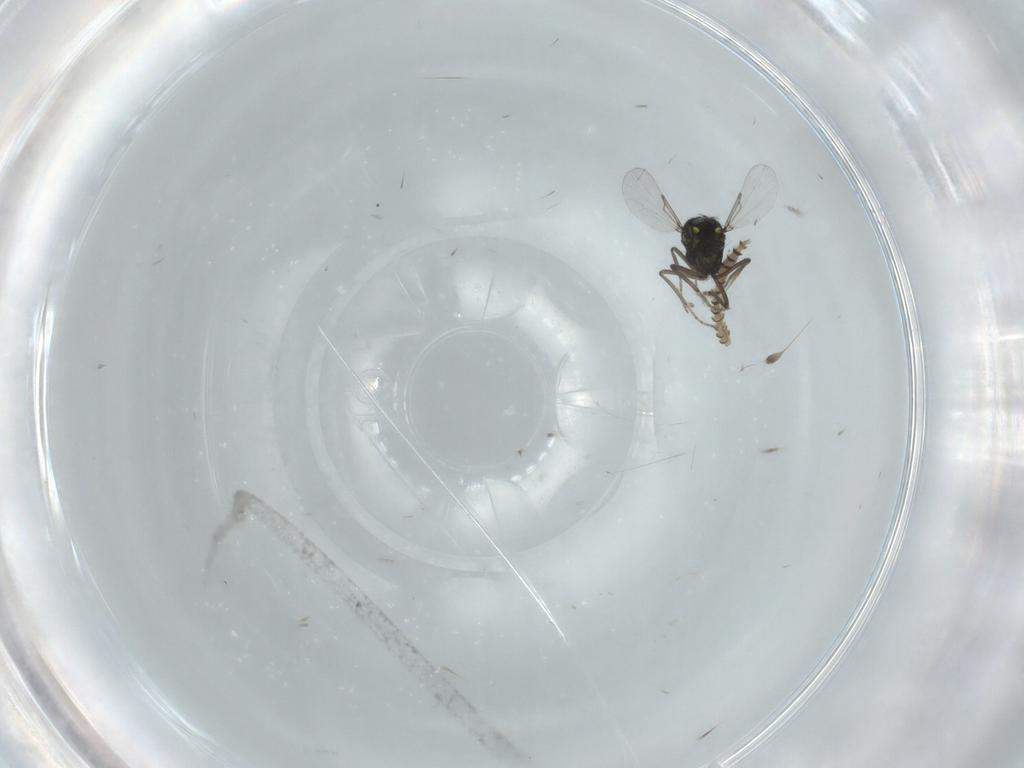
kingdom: Animalia
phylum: Arthropoda
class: Insecta
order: Diptera
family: Ceratopogonidae
